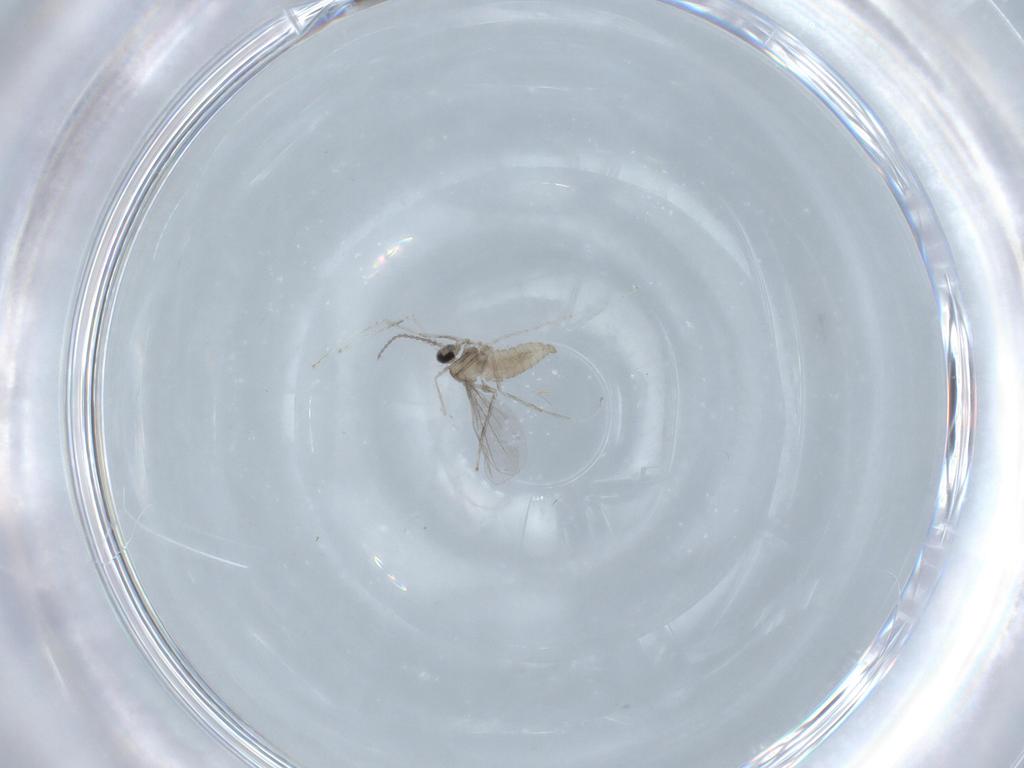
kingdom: Animalia
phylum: Arthropoda
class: Insecta
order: Diptera
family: Cecidomyiidae
